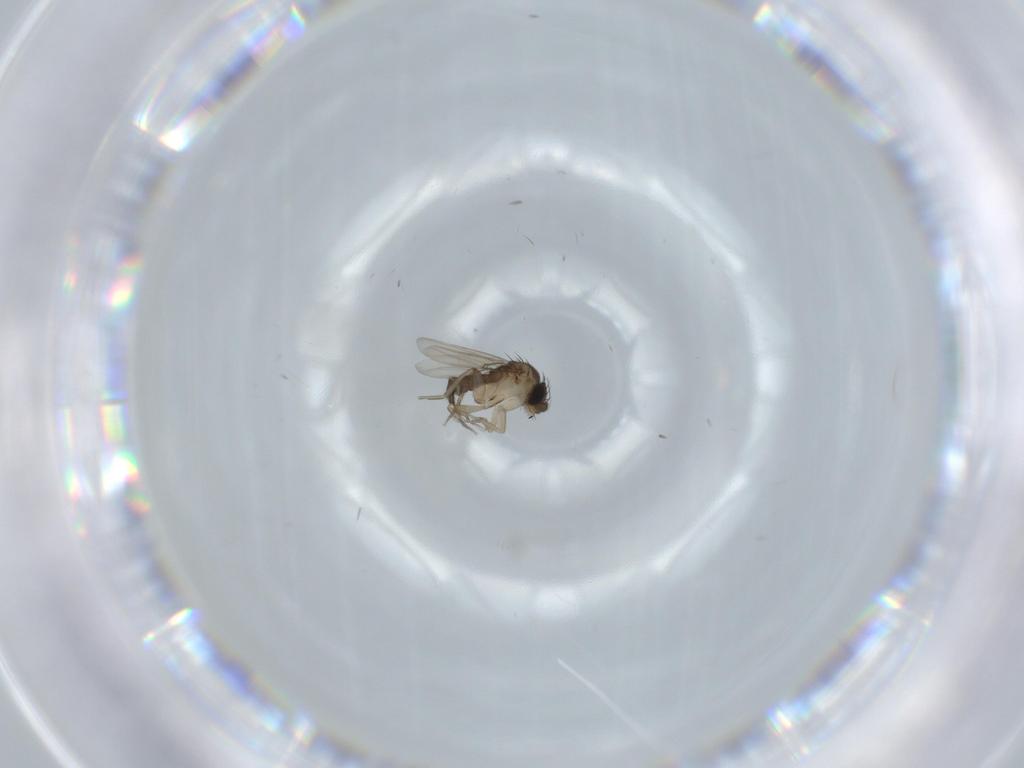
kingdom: Animalia
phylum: Arthropoda
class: Insecta
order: Diptera
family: Phoridae
